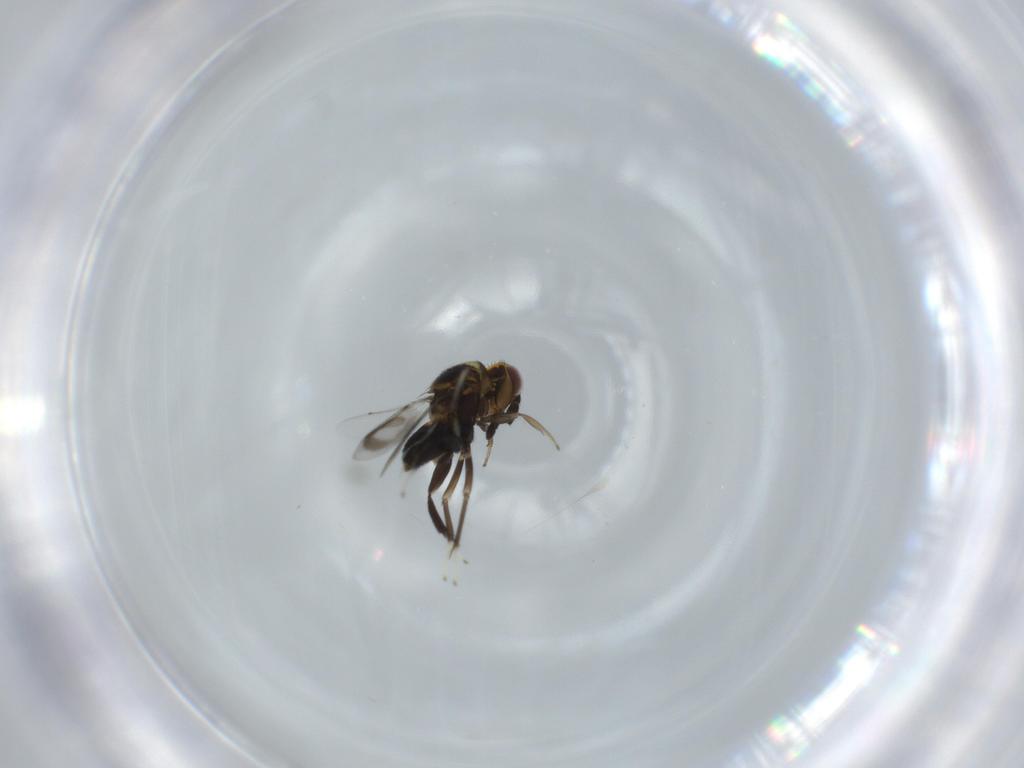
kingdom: Animalia
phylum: Arthropoda
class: Insecta
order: Hymenoptera
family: Aphelinidae
